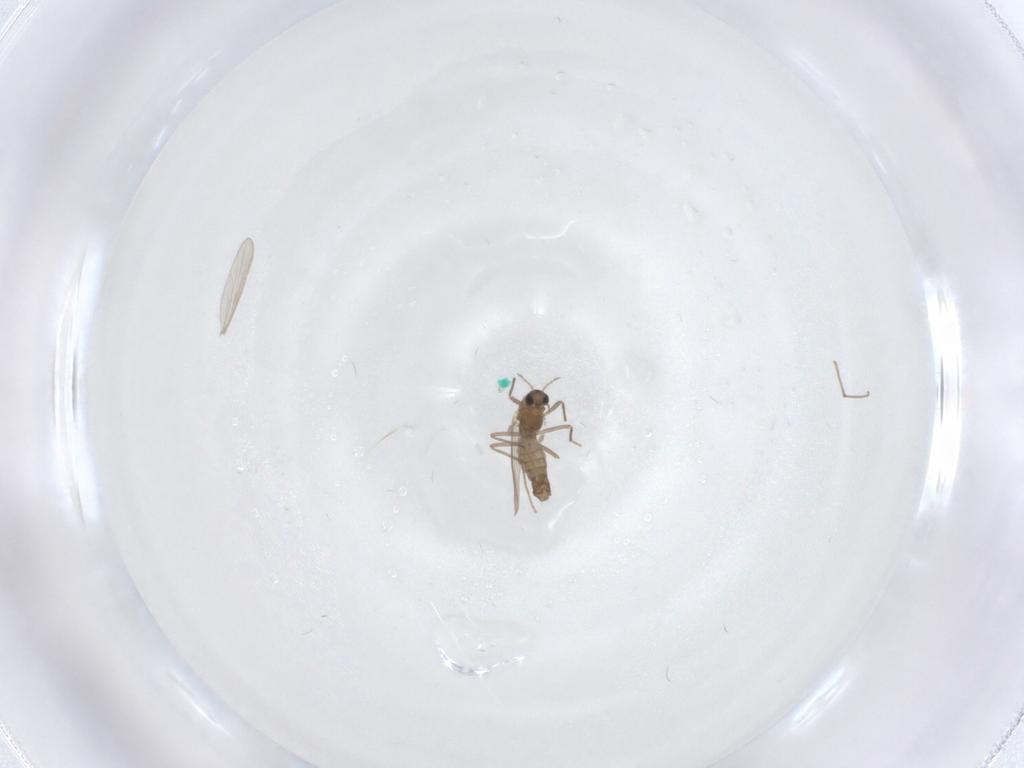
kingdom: Animalia
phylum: Arthropoda
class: Insecta
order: Diptera
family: Chironomidae
